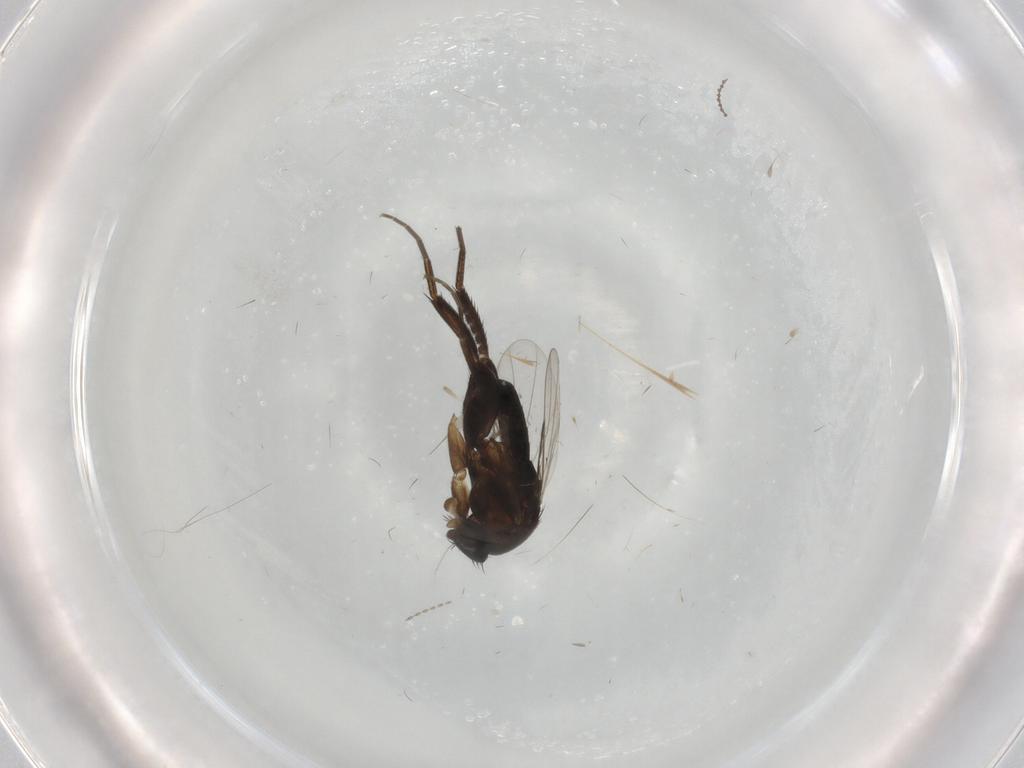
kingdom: Animalia
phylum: Arthropoda
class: Insecta
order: Diptera
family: Phoridae
